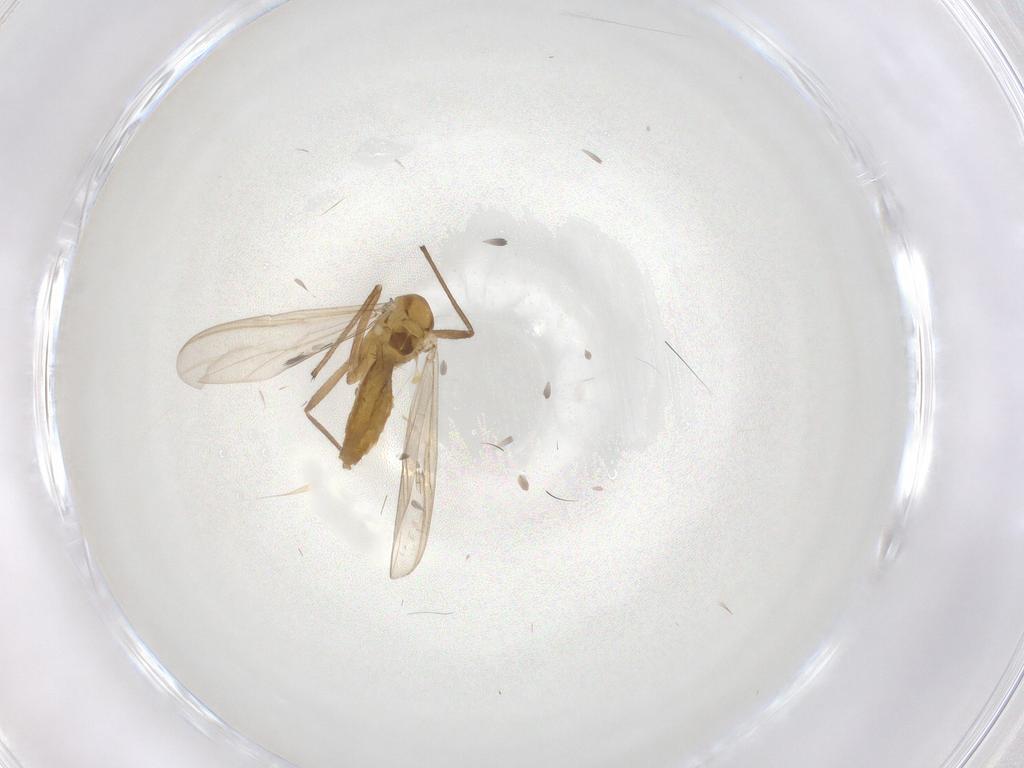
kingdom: Animalia
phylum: Arthropoda
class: Insecta
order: Diptera
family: Chironomidae
